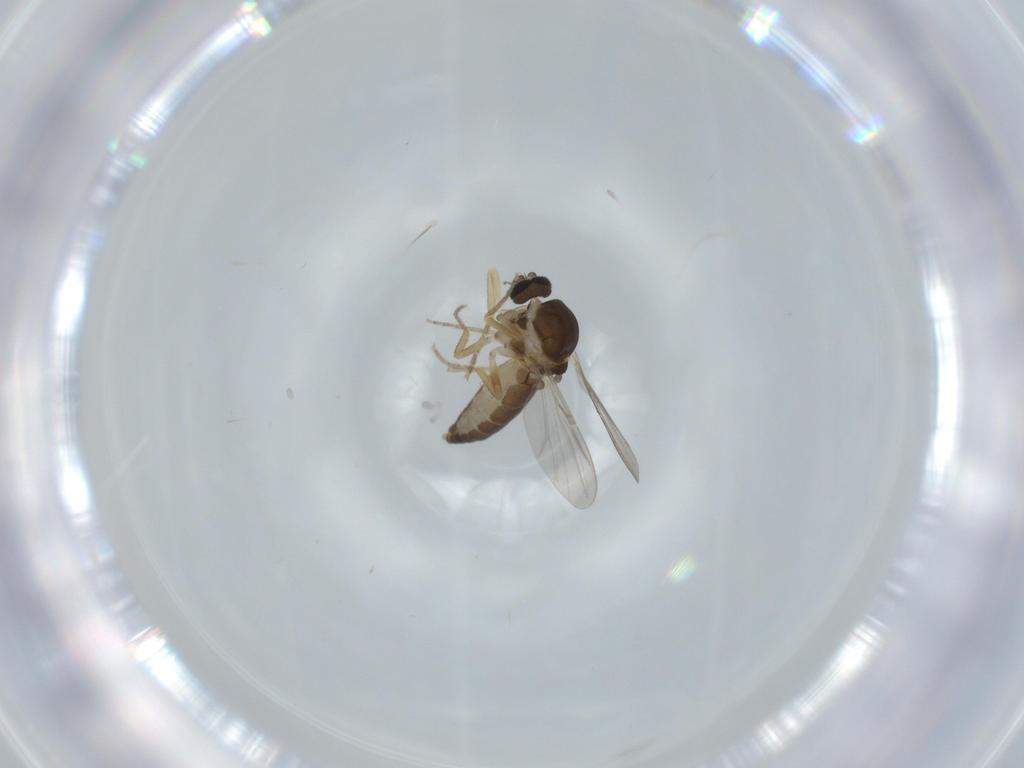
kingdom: Animalia
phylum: Arthropoda
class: Insecta
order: Diptera
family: Ceratopogonidae
